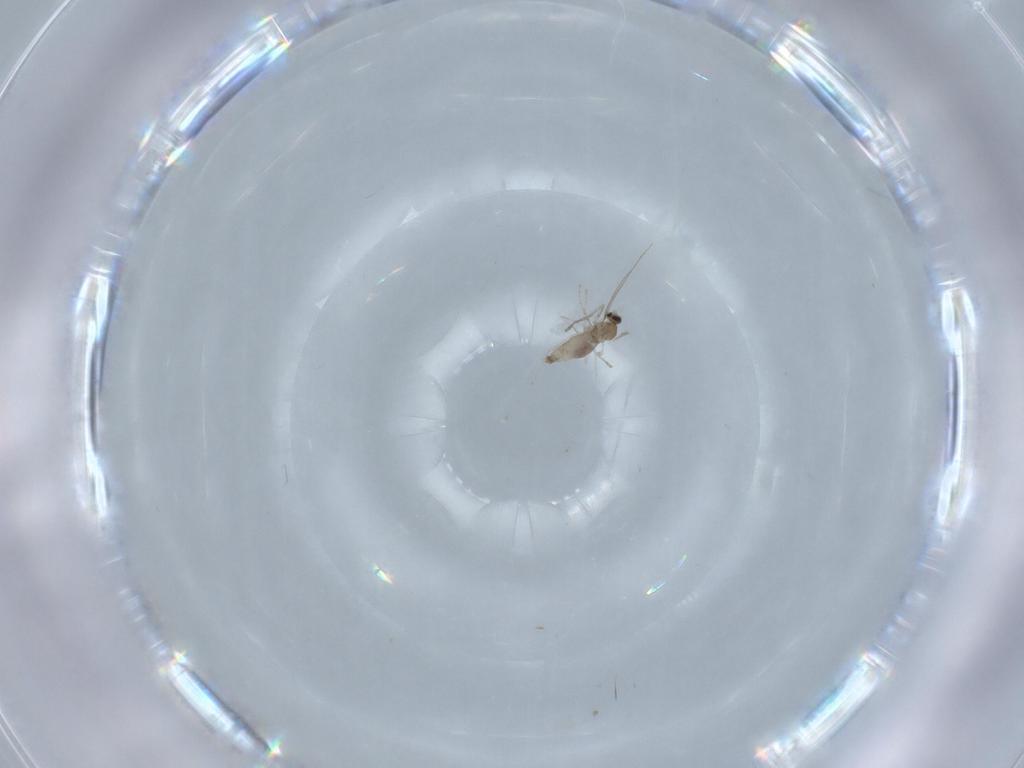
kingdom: Animalia
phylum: Arthropoda
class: Insecta
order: Diptera
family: Cecidomyiidae
